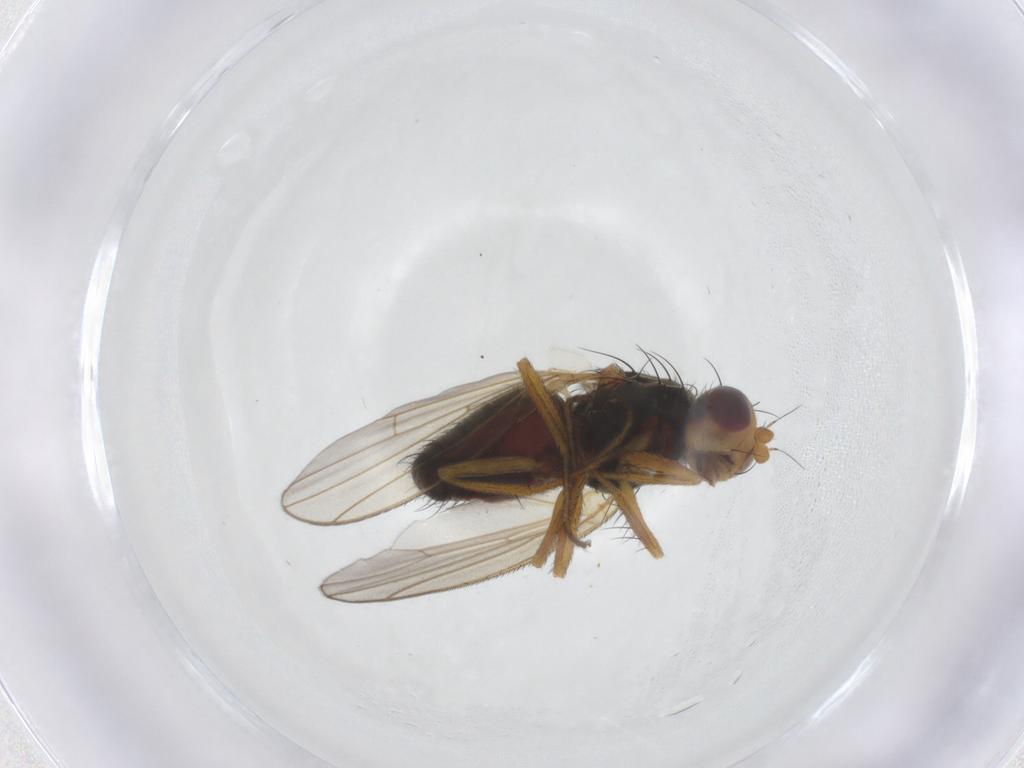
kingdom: Animalia
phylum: Arthropoda
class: Insecta
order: Diptera
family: Heleomyzidae
